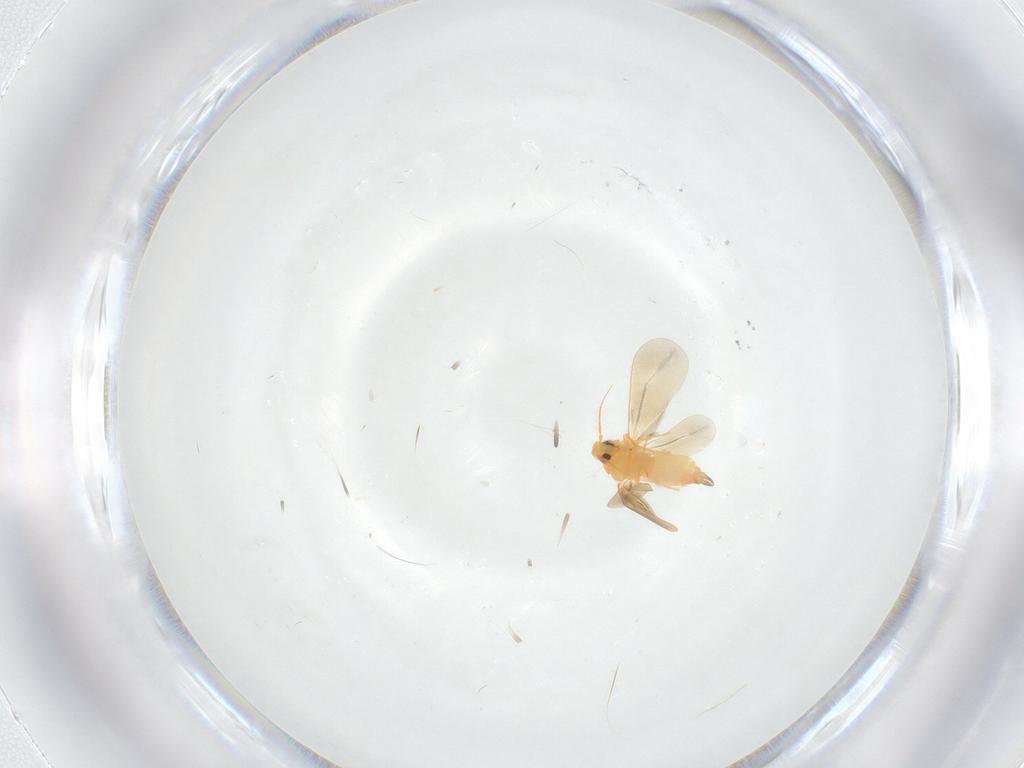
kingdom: Animalia
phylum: Arthropoda
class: Insecta
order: Hemiptera
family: Aleyrodidae
